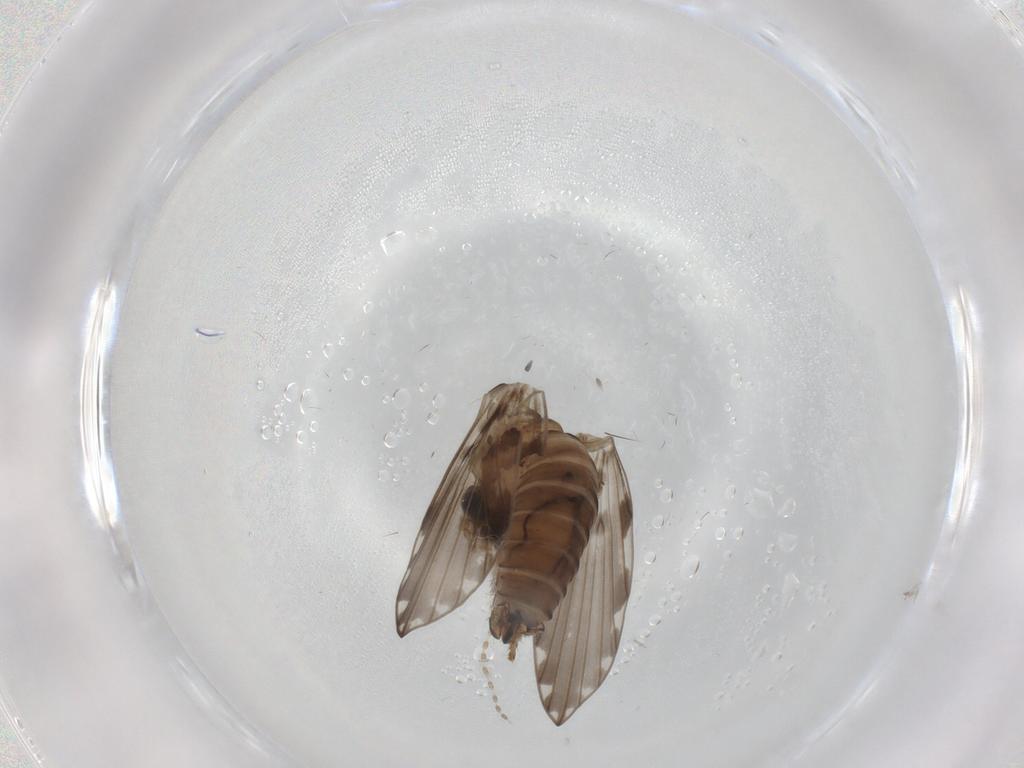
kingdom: Animalia
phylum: Arthropoda
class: Insecta
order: Diptera
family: Psychodidae
